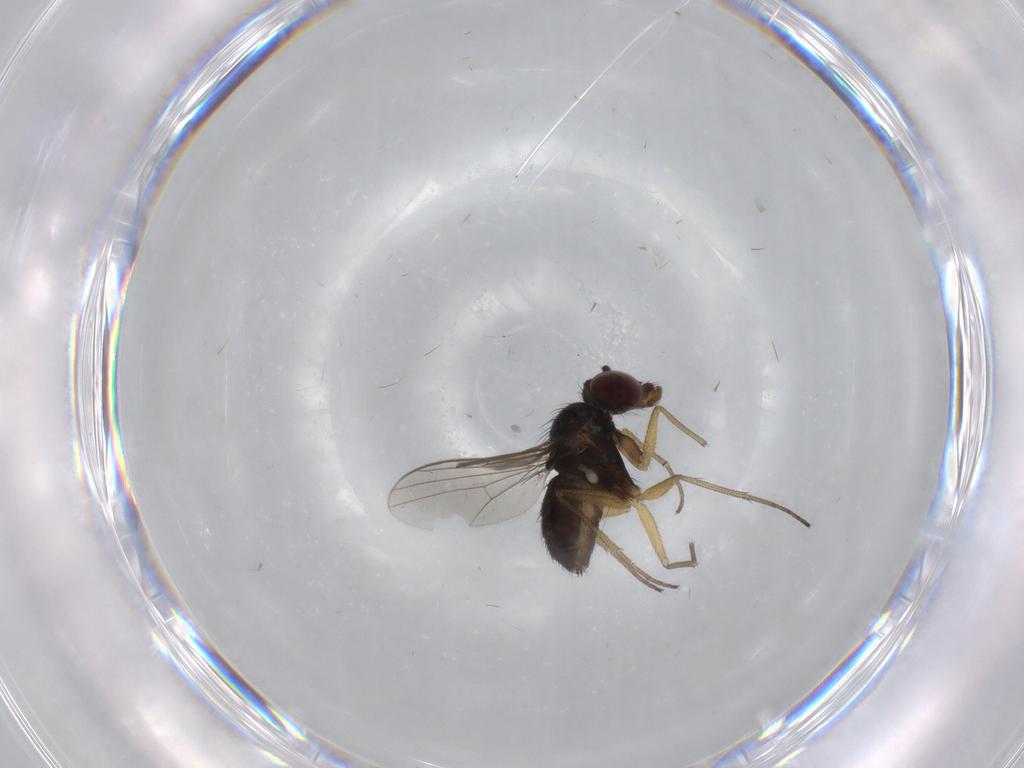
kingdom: Animalia
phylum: Arthropoda
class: Insecta
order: Diptera
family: Dolichopodidae
